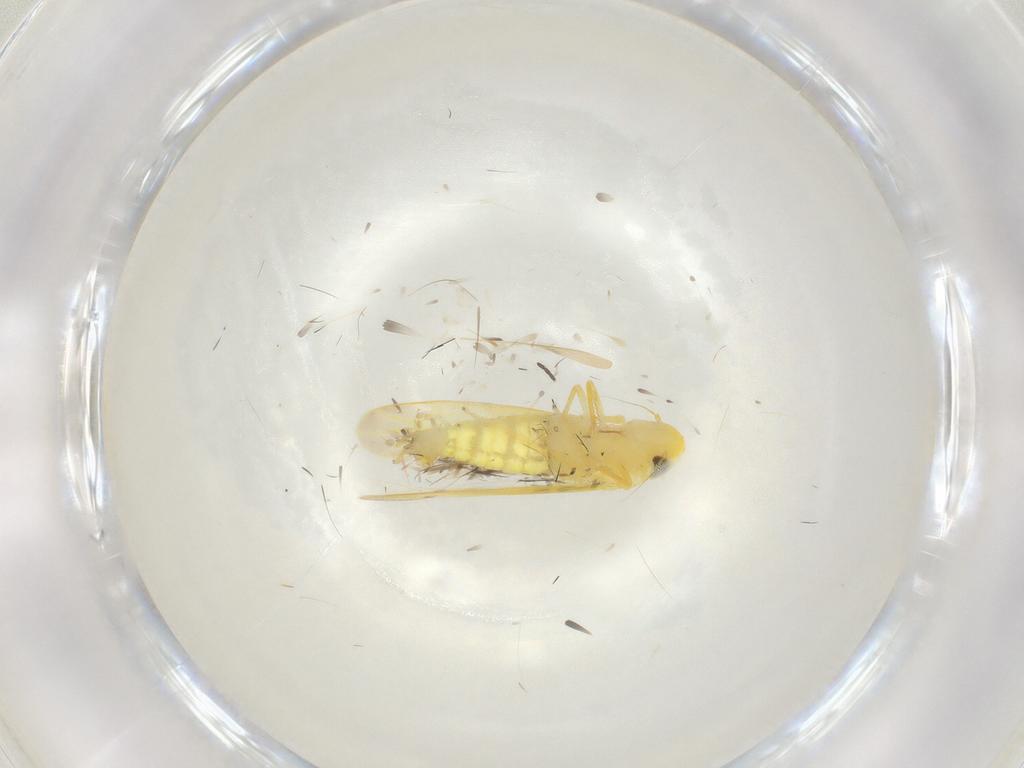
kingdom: Animalia
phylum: Arthropoda
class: Insecta
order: Hemiptera
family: Cicadellidae
